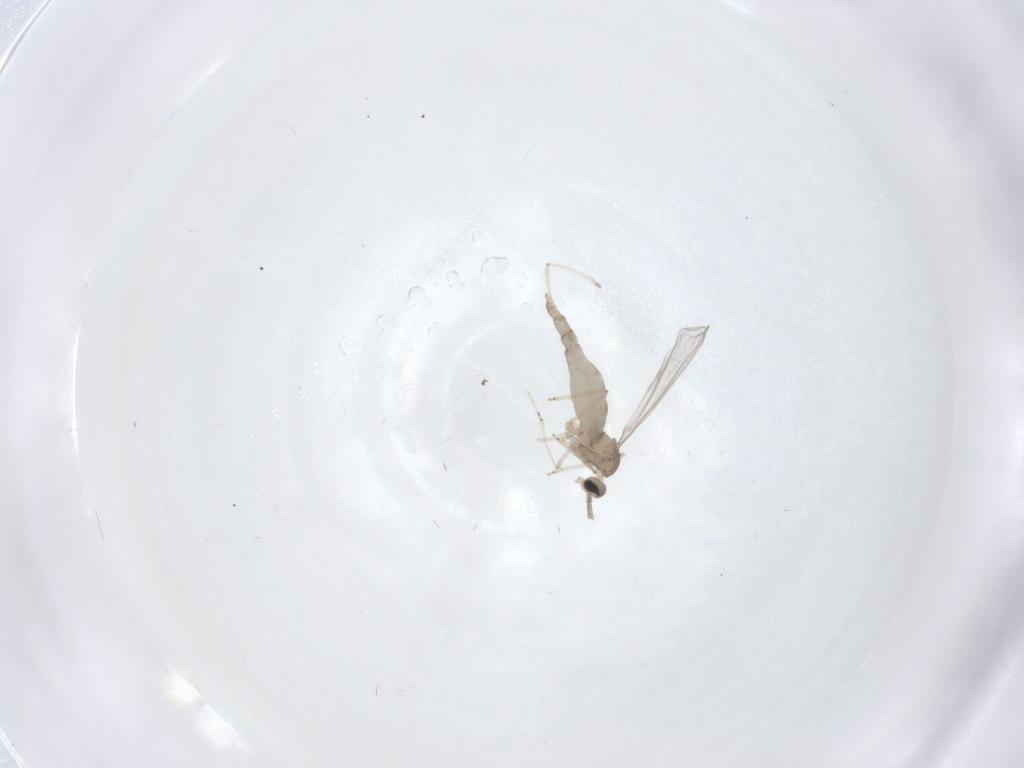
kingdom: Animalia
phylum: Arthropoda
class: Insecta
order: Diptera
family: Cecidomyiidae
